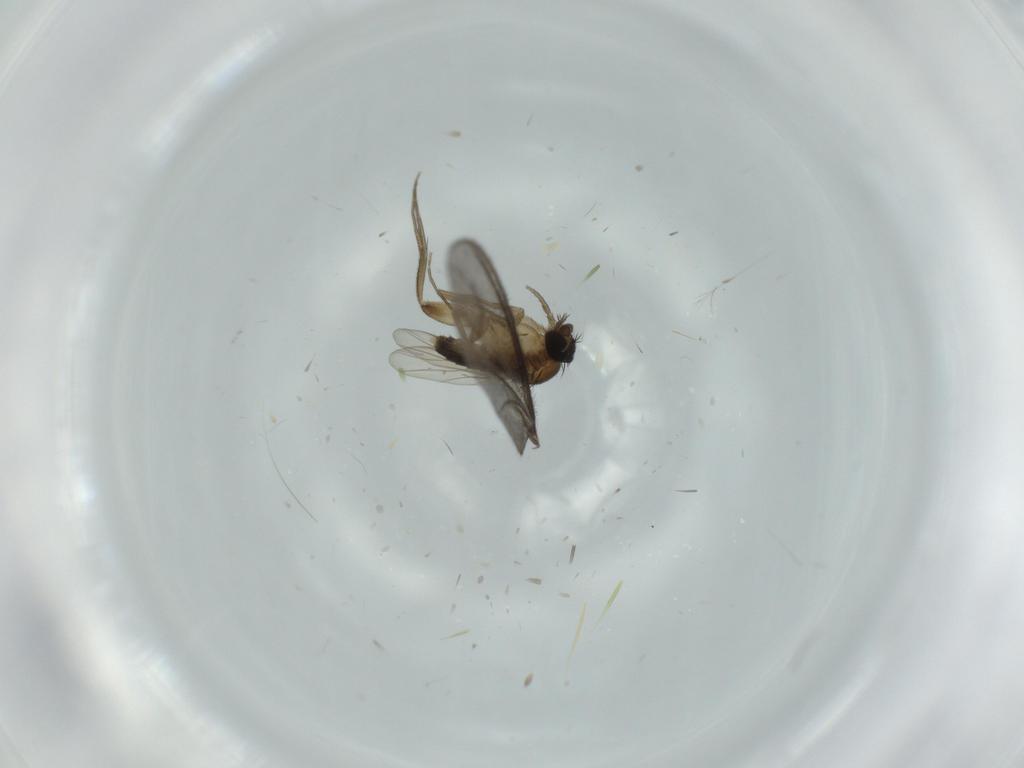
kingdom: Animalia
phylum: Arthropoda
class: Insecta
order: Diptera
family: Phoridae
